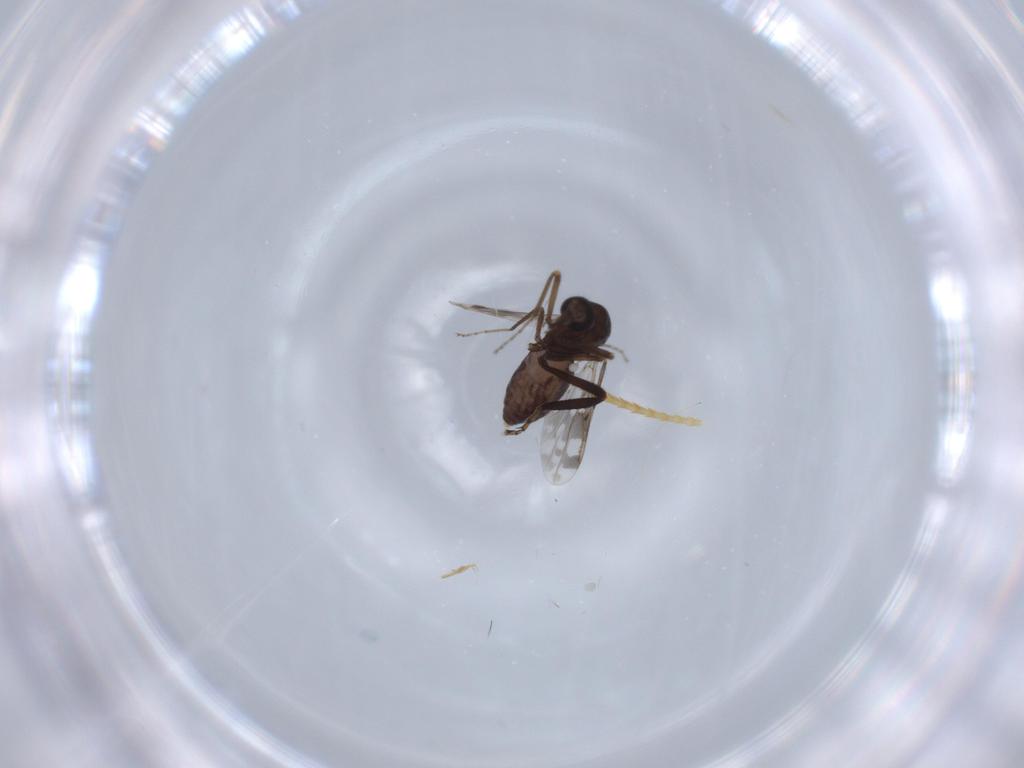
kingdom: Animalia
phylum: Arthropoda
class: Insecta
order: Diptera
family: Ceratopogonidae
